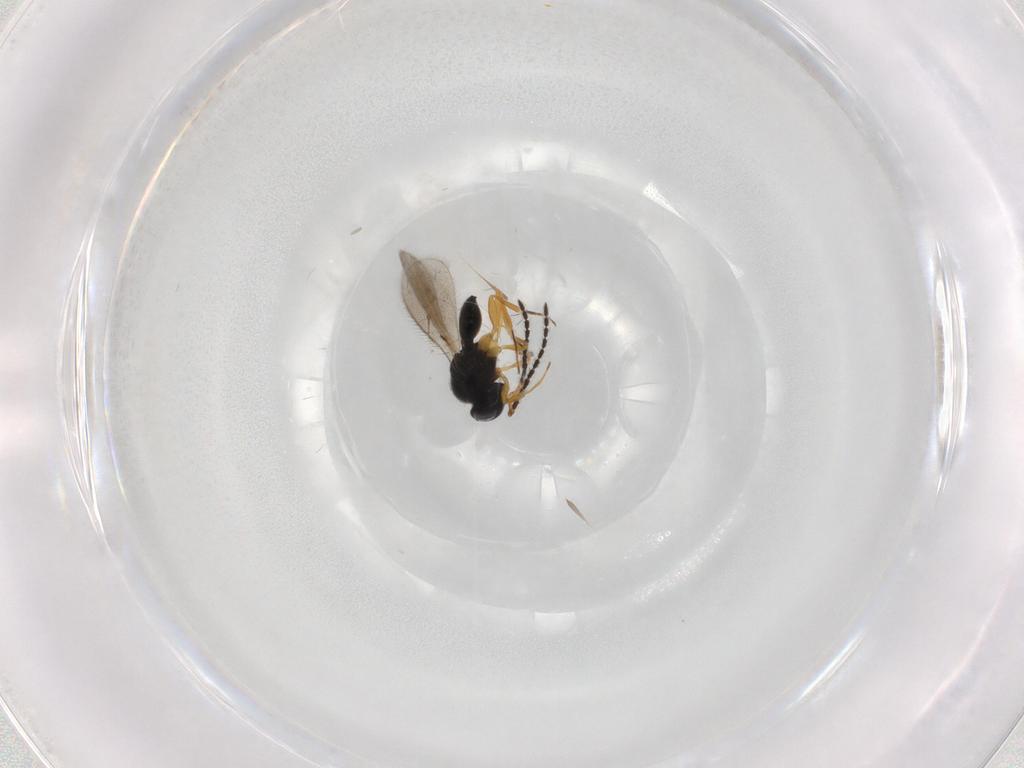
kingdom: Animalia
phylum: Arthropoda
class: Insecta
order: Hymenoptera
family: Scelionidae
